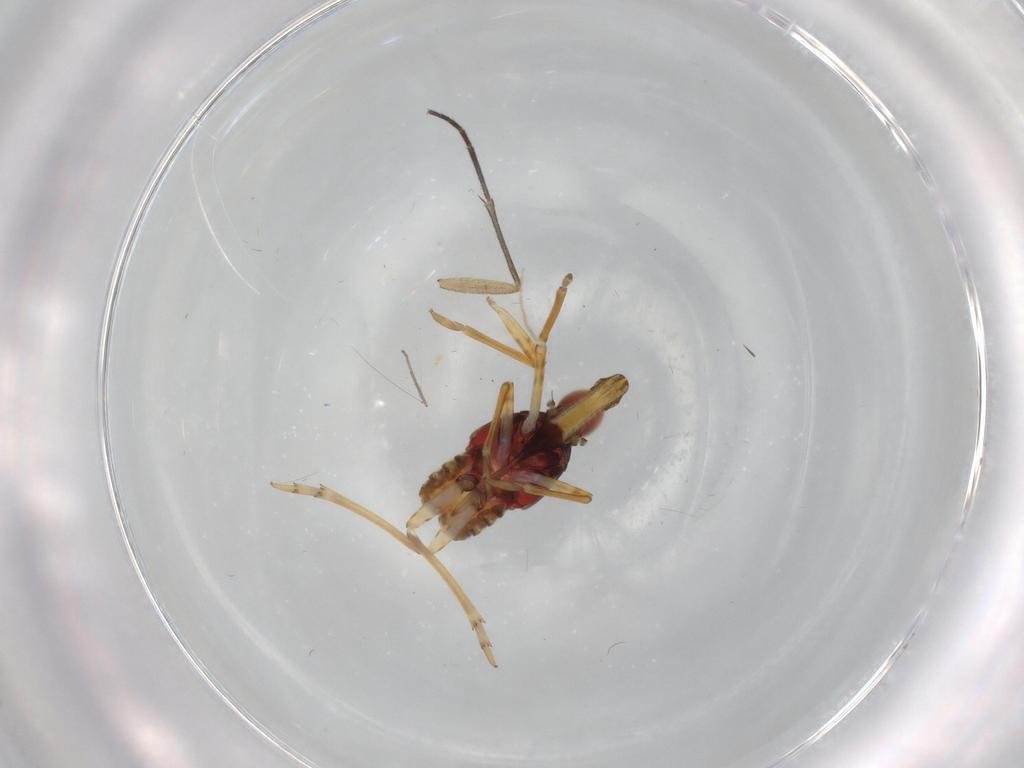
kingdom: Animalia
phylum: Arthropoda
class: Insecta
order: Hemiptera
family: Fulgoroidea_incertae_sedis
